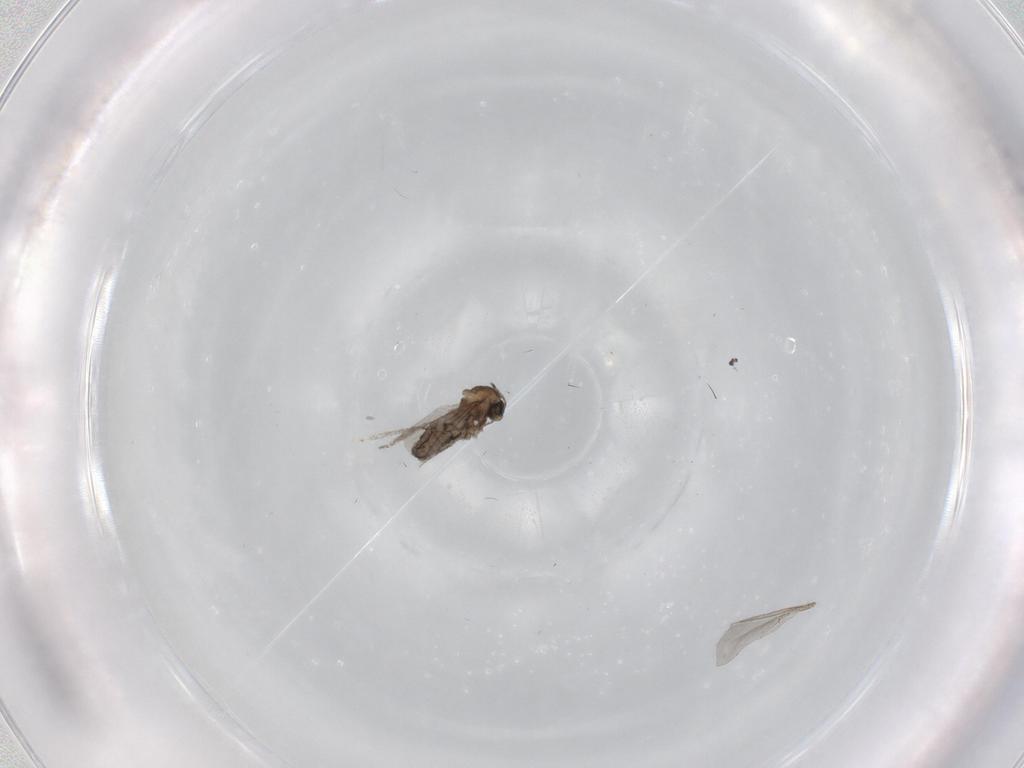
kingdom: Animalia
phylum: Arthropoda
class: Insecta
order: Diptera
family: Cecidomyiidae
